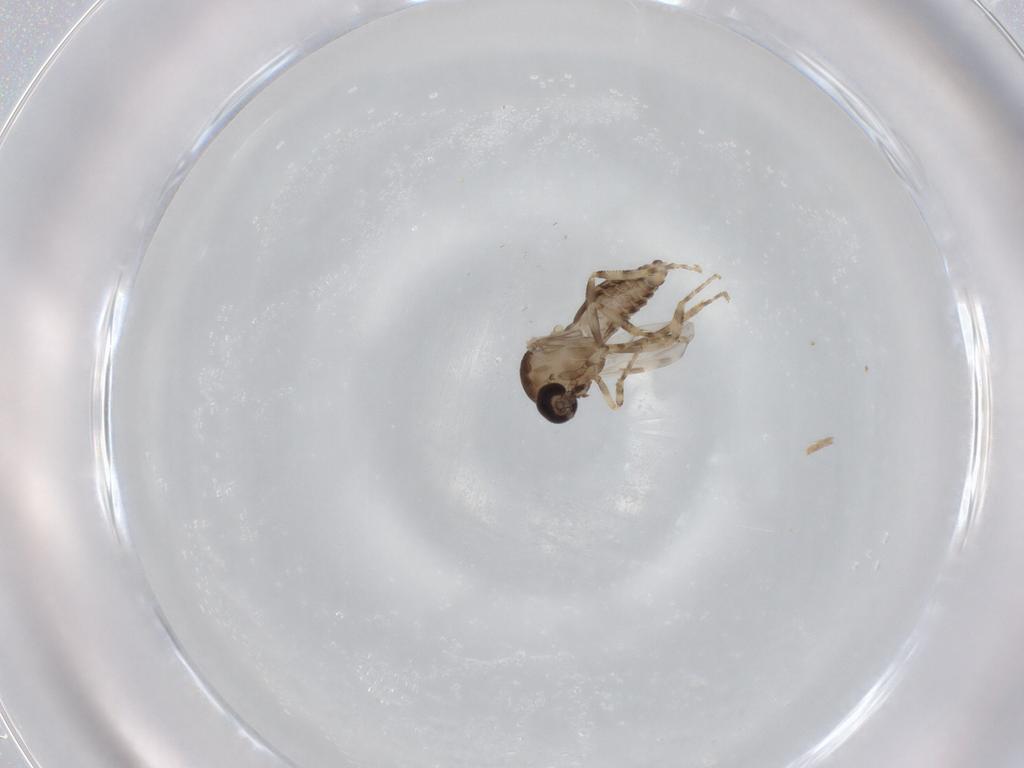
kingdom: Animalia
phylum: Arthropoda
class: Insecta
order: Diptera
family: Ceratopogonidae
